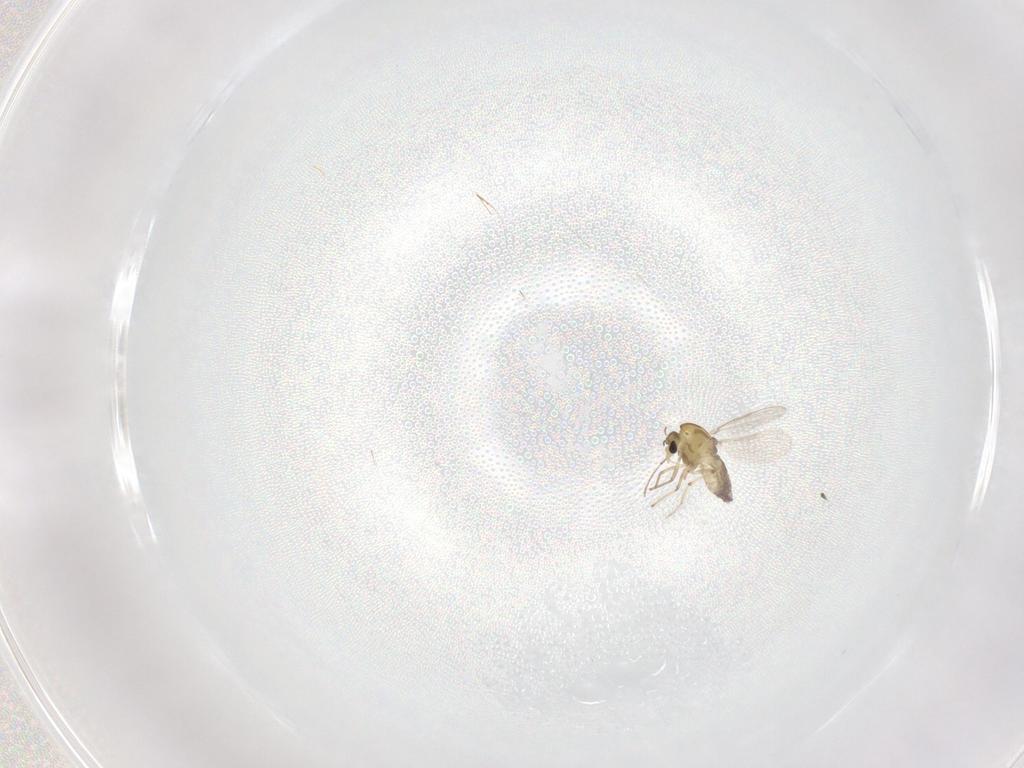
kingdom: Animalia
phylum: Arthropoda
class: Insecta
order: Diptera
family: Chironomidae
